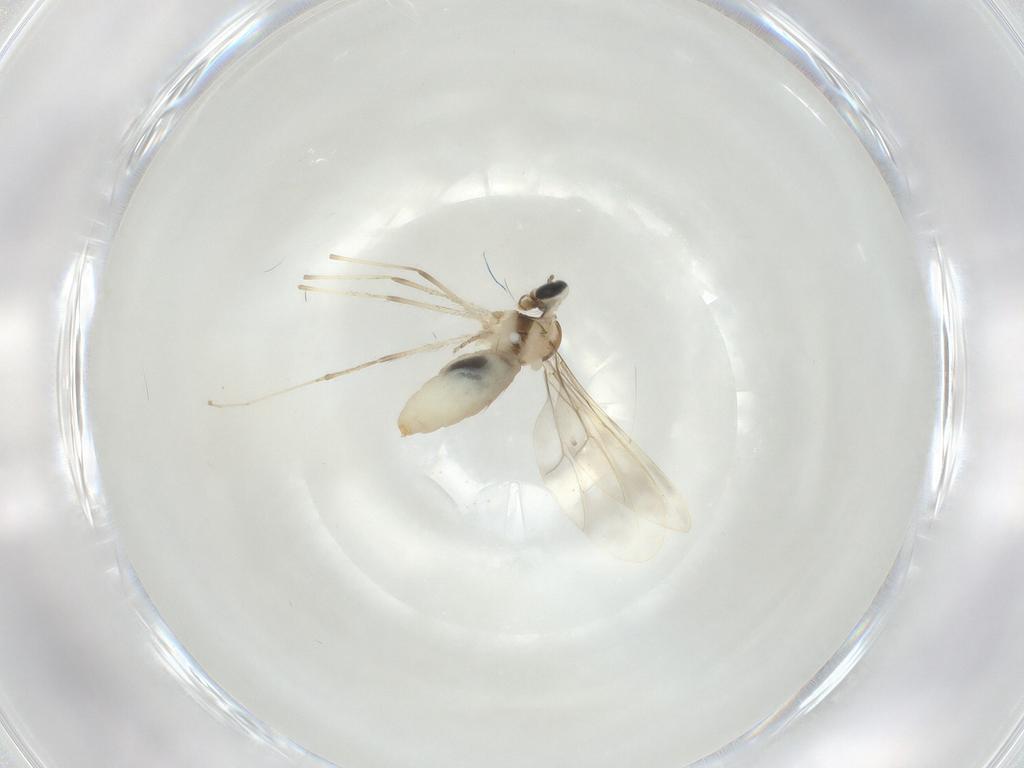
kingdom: Animalia
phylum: Arthropoda
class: Insecta
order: Diptera
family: Cecidomyiidae
